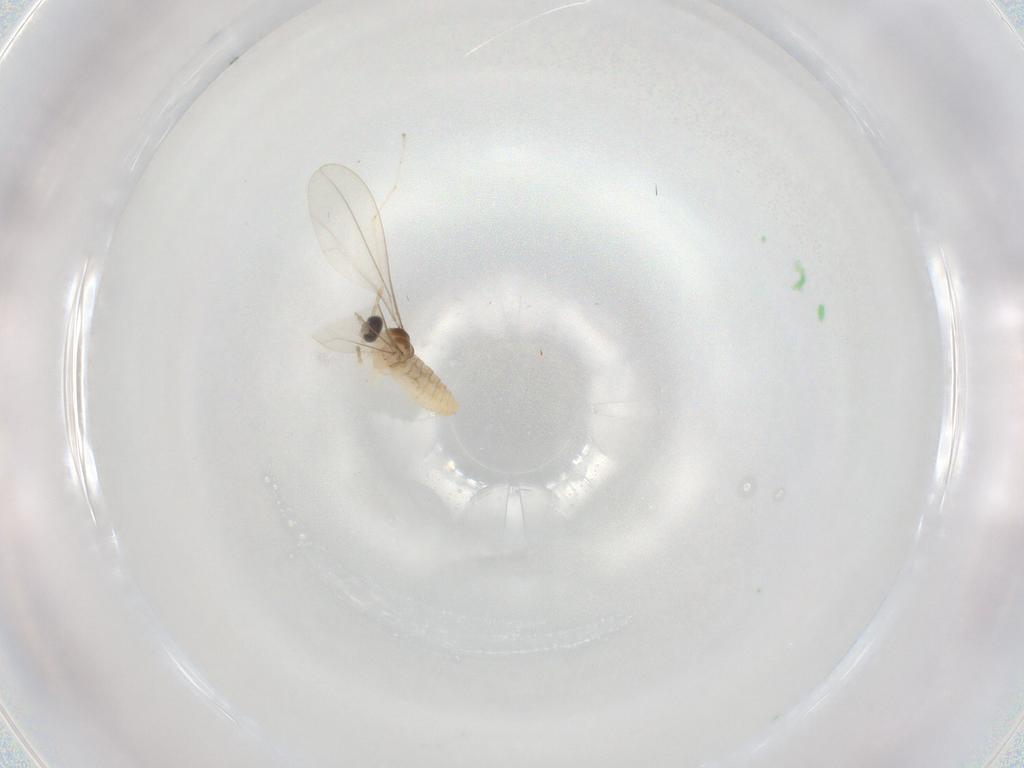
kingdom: Animalia
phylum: Arthropoda
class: Insecta
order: Diptera
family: Cecidomyiidae
